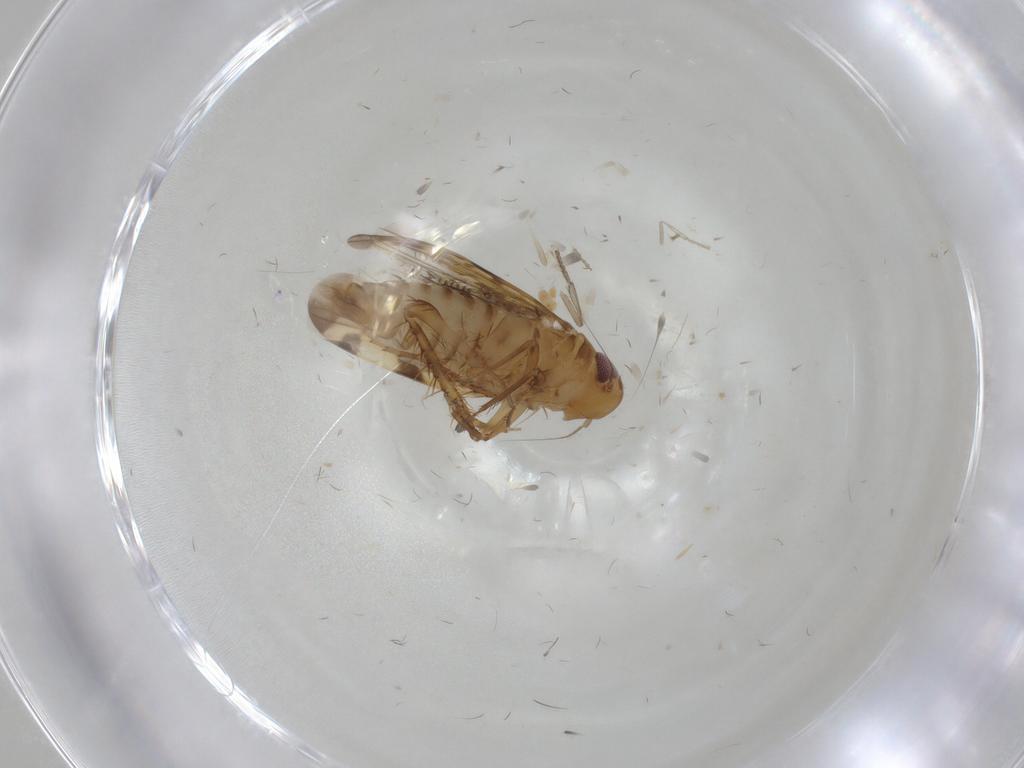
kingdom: Animalia
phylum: Arthropoda
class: Insecta
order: Hemiptera
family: Cicadellidae
